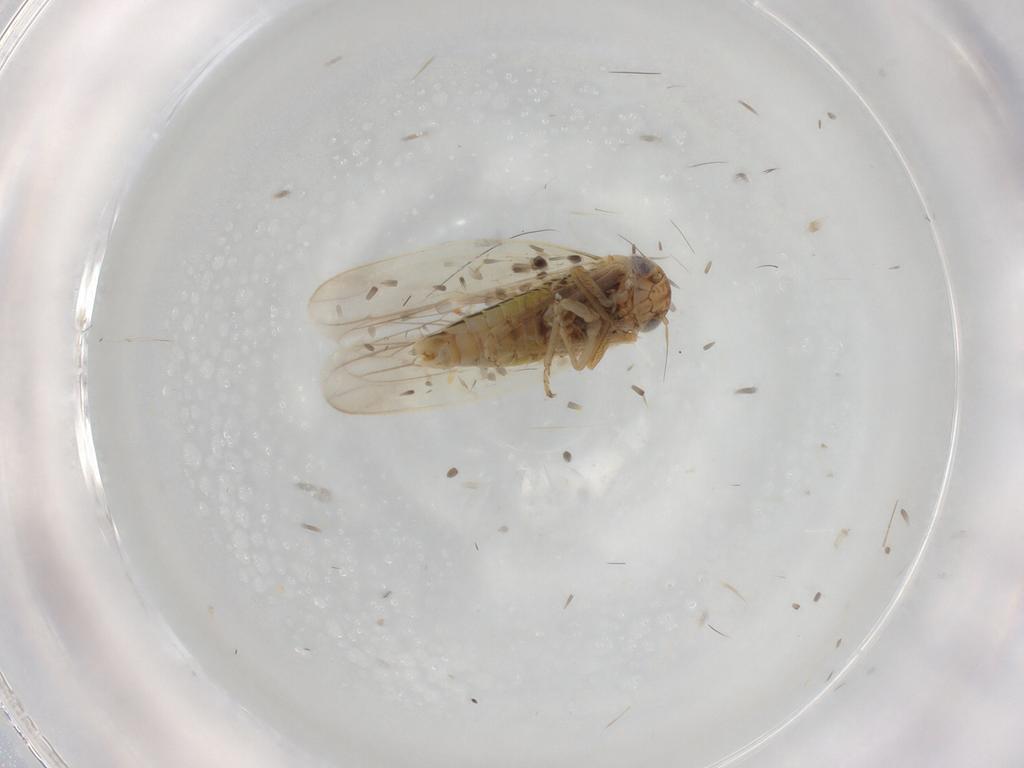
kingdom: Animalia
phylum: Arthropoda
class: Insecta
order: Hemiptera
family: Cicadellidae
